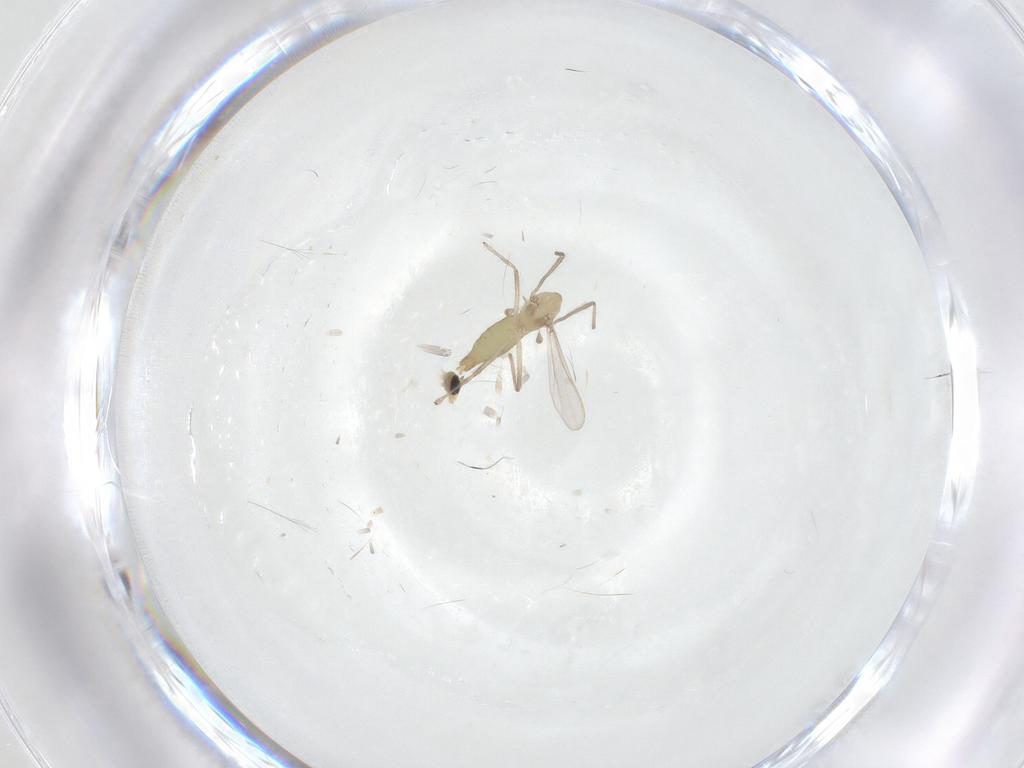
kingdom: Animalia
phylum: Arthropoda
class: Insecta
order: Diptera
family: Chironomidae
